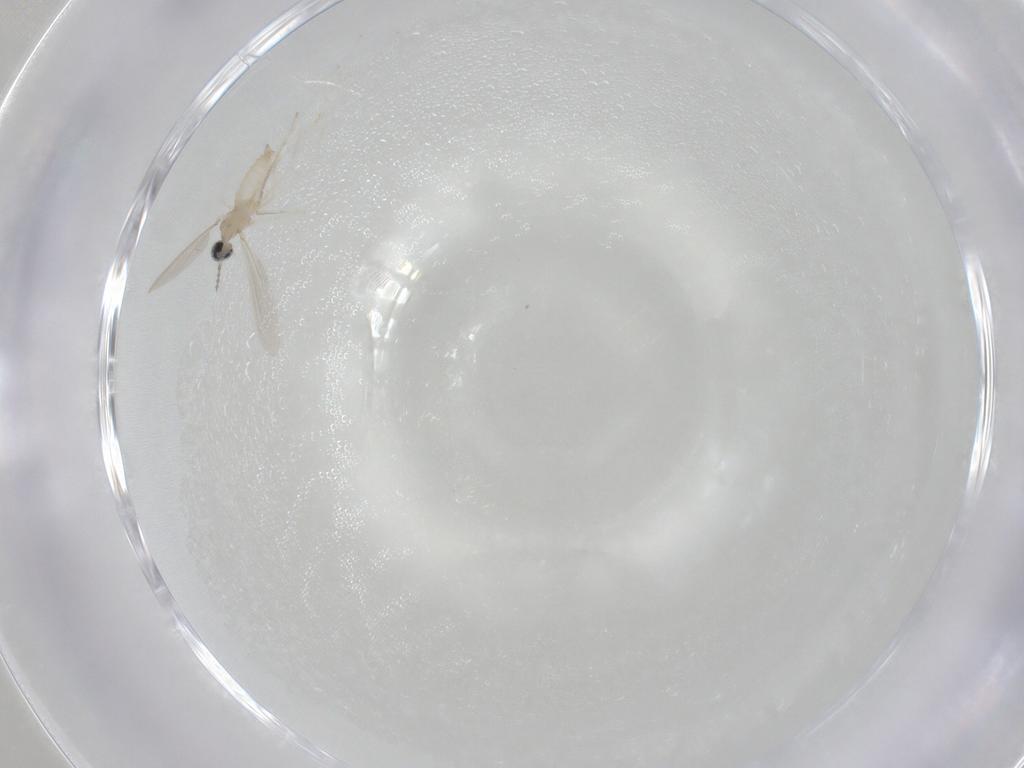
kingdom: Animalia
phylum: Arthropoda
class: Insecta
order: Diptera
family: Cecidomyiidae
